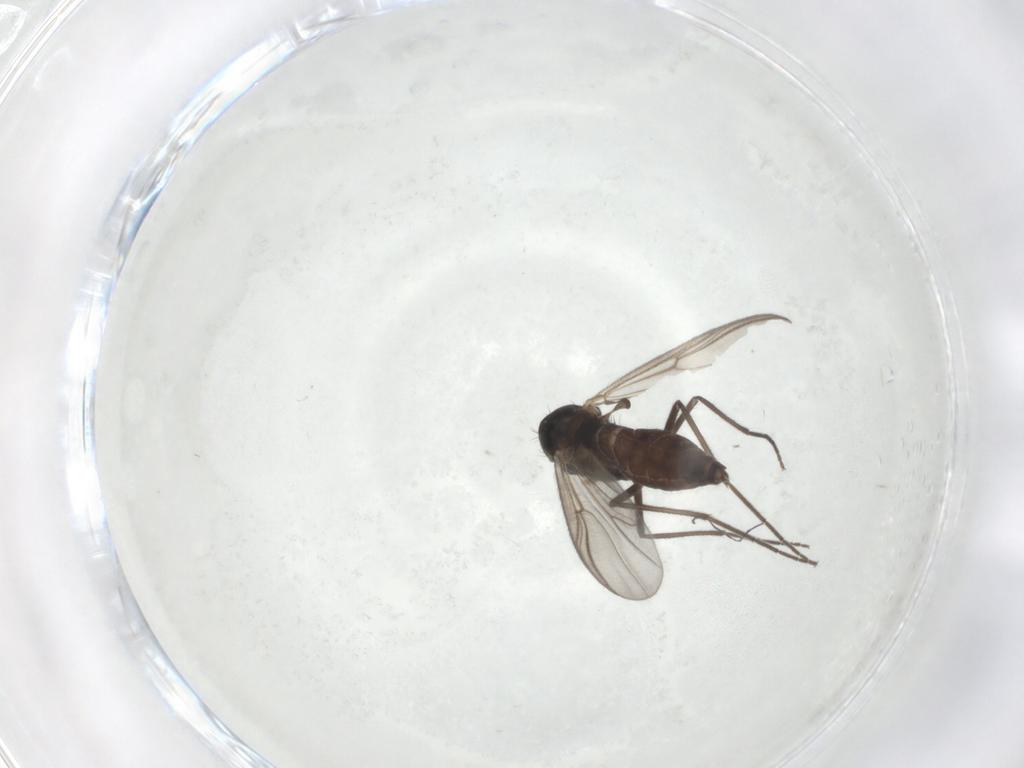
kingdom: Animalia
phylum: Arthropoda
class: Insecta
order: Diptera
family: Chironomidae
